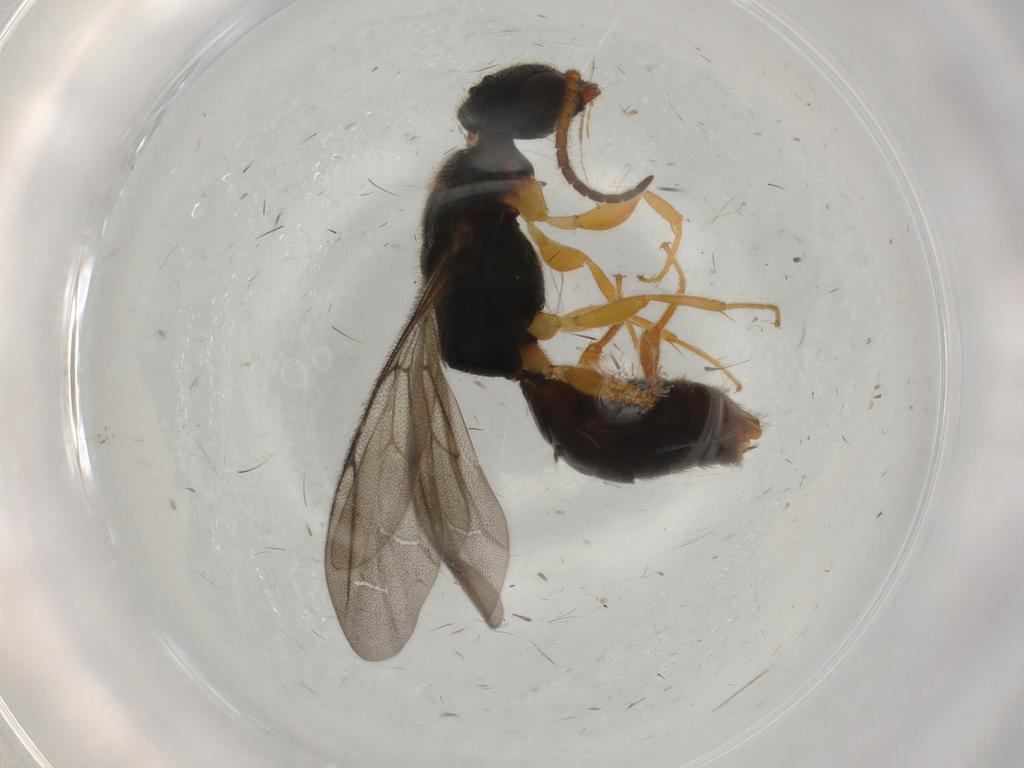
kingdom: Animalia
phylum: Arthropoda
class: Insecta
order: Hymenoptera
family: Bethylidae
